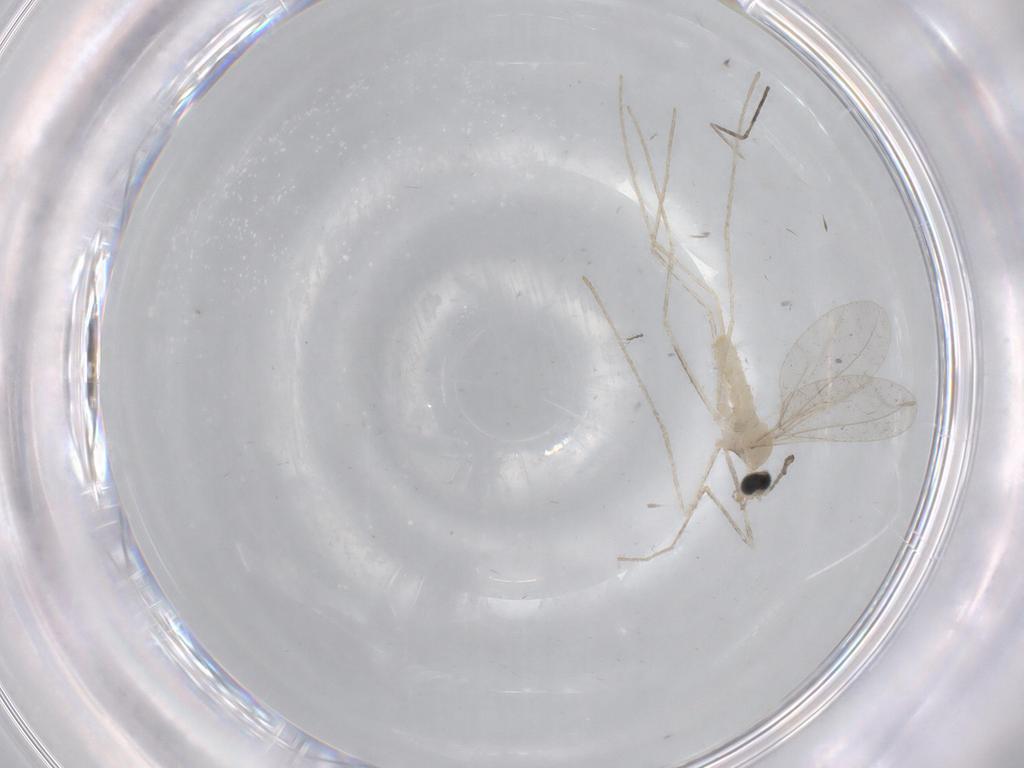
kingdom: Animalia
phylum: Arthropoda
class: Insecta
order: Diptera
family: Cecidomyiidae
